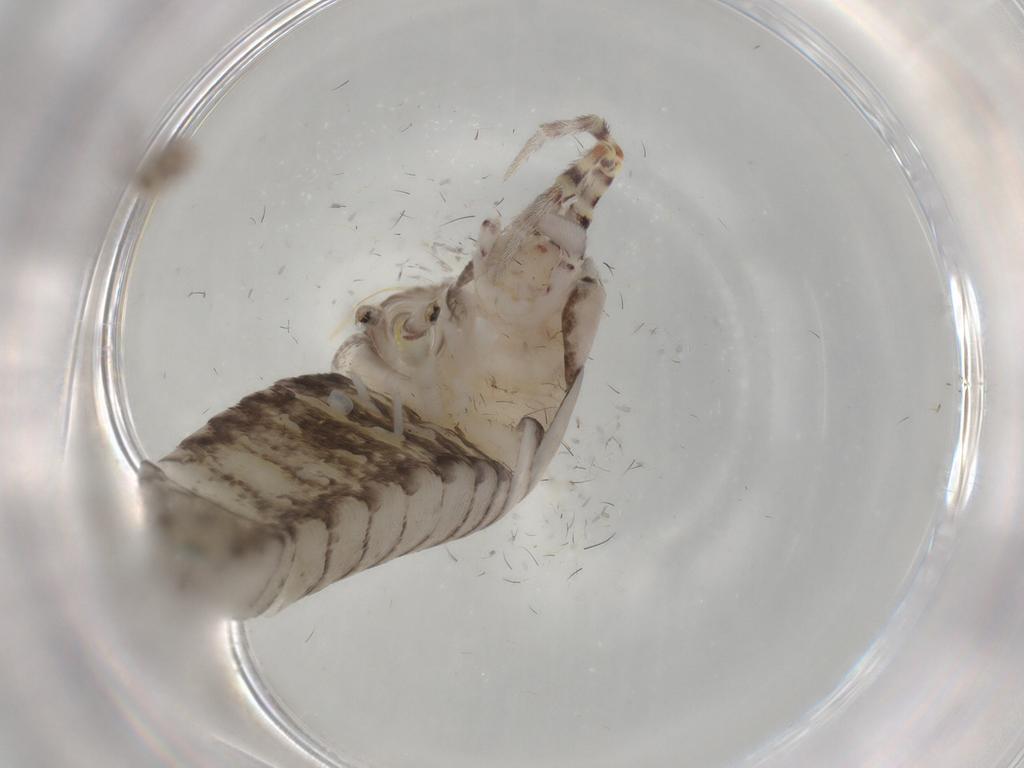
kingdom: Animalia
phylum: Arthropoda
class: Insecta
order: Archaeognatha
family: Machilidae
